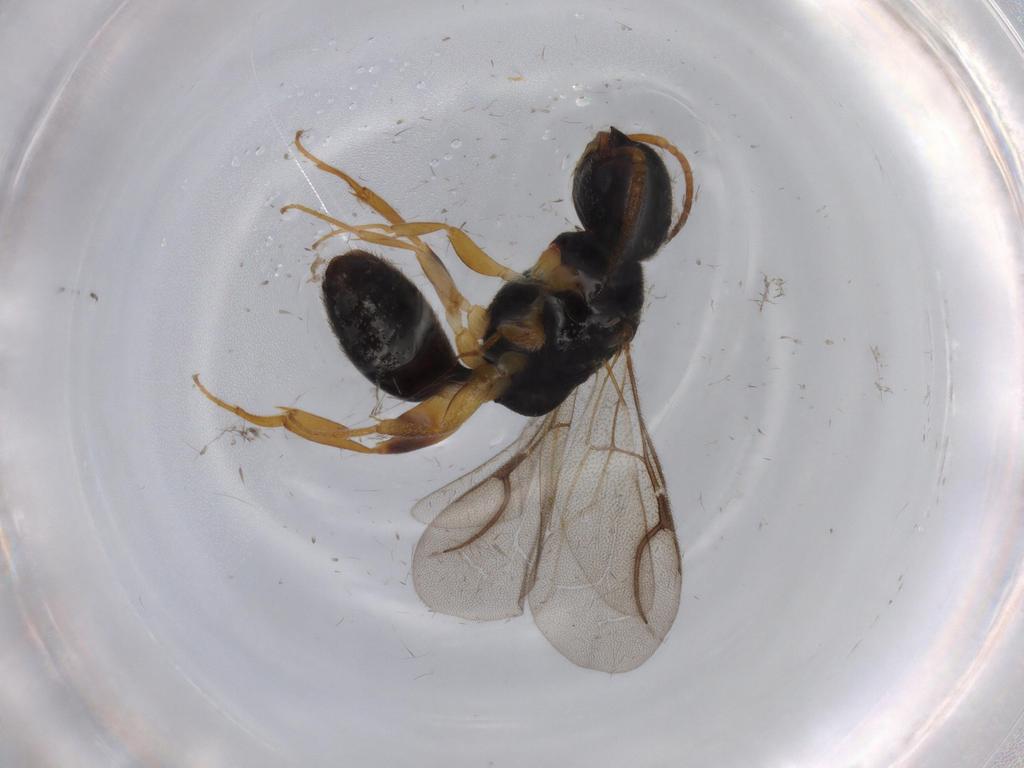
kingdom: Animalia
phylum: Arthropoda
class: Insecta
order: Hymenoptera
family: Bethylidae
